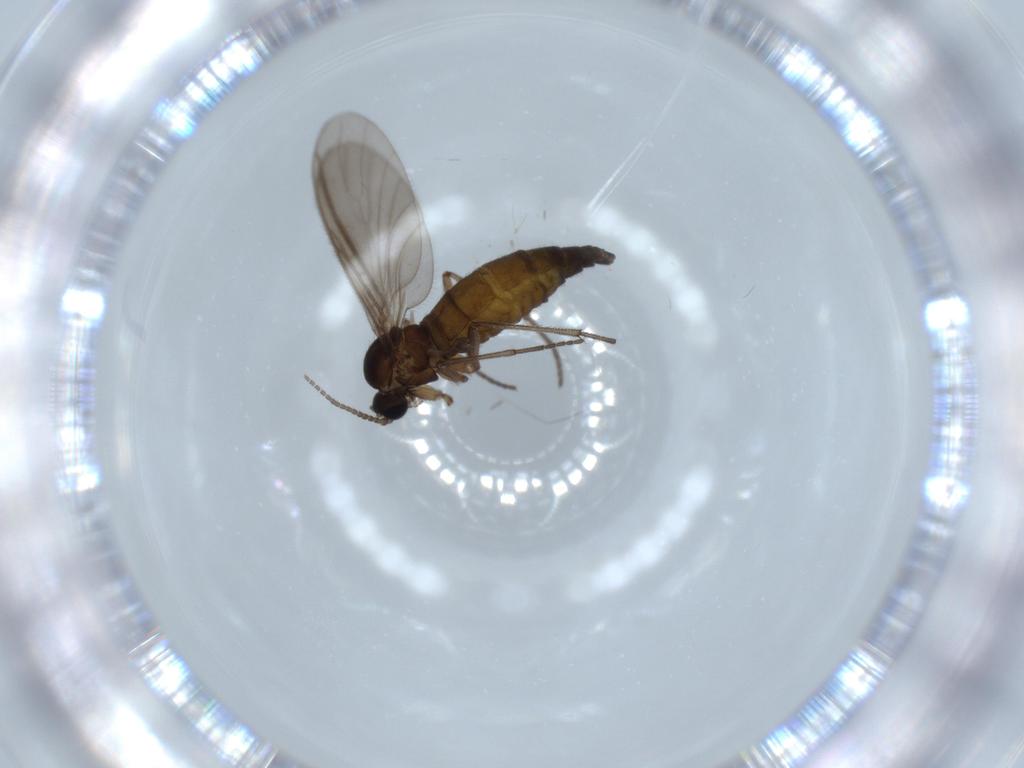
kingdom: Animalia
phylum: Arthropoda
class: Insecta
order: Diptera
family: Sciaridae
